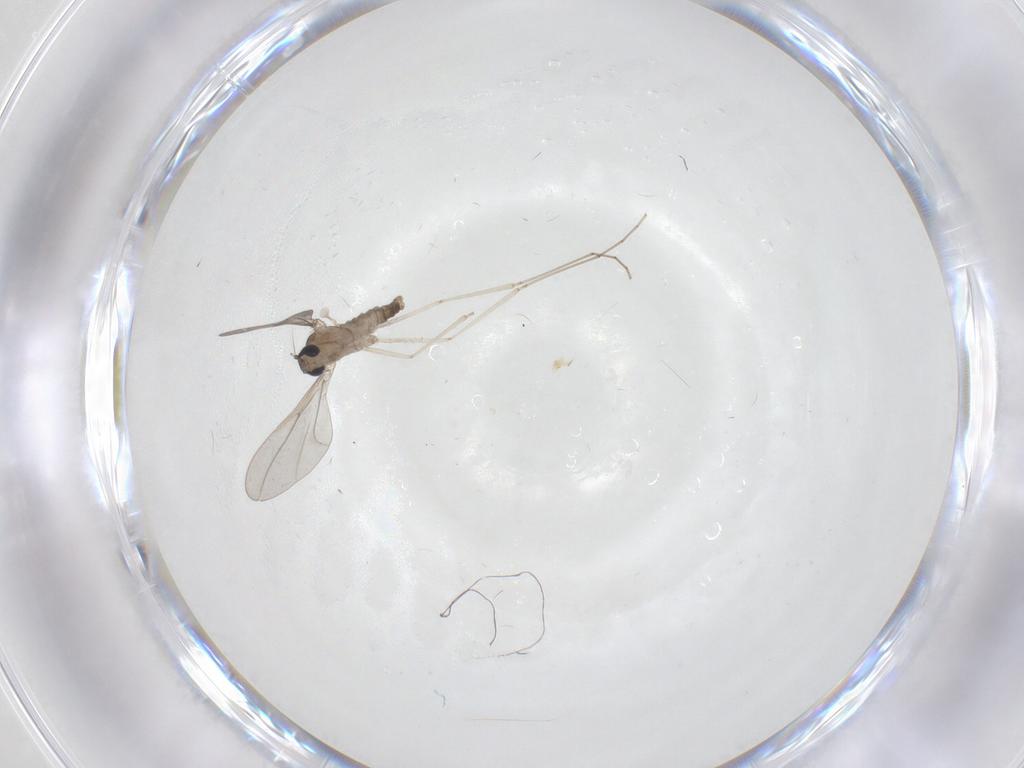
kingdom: Animalia
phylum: Arthropoda
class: Insecta
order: Diptera
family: Cecidomyiidae
